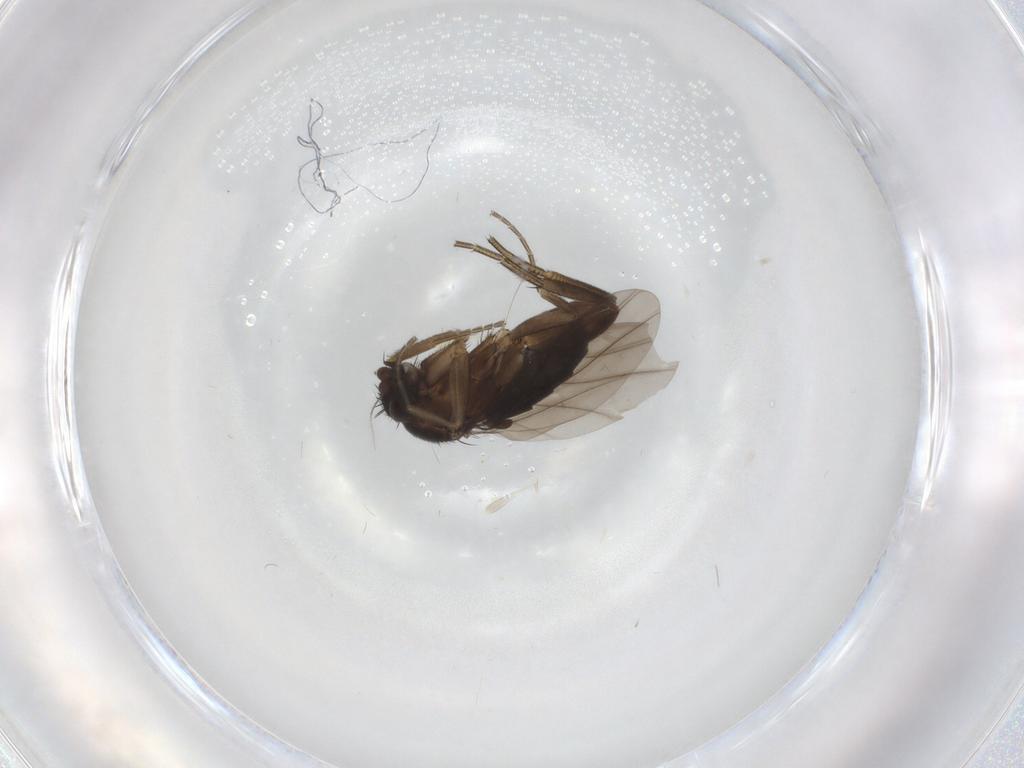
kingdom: Animalia
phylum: Arthropoda
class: Insecta
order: Diptera
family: Phoridae
